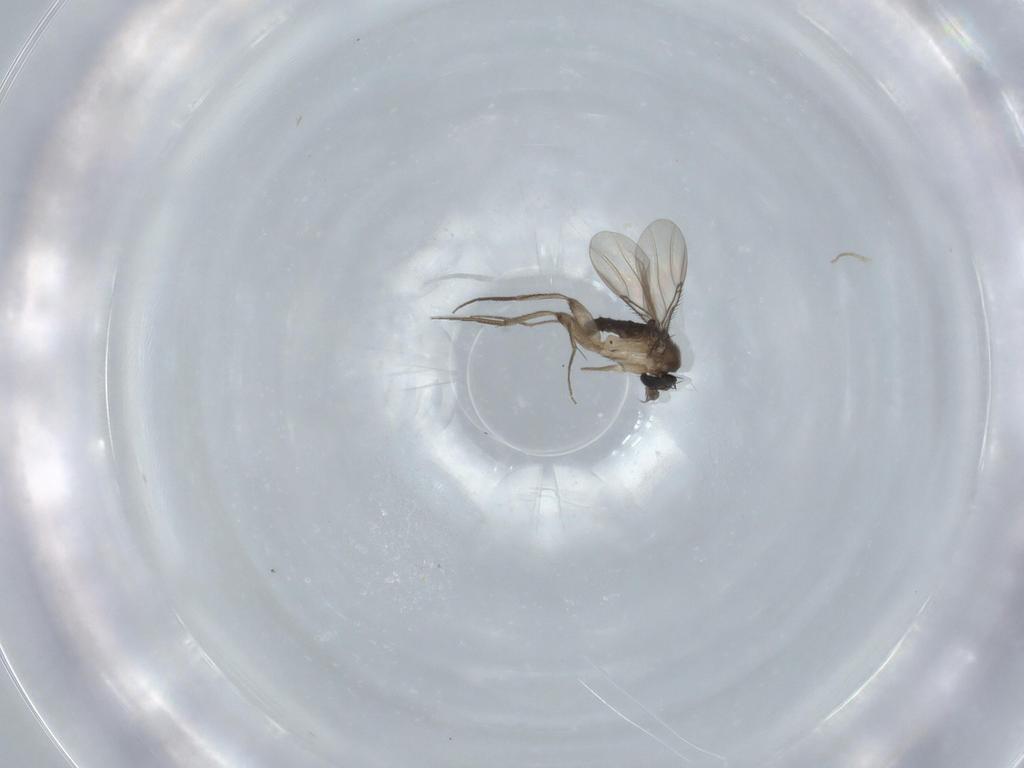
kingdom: Animalia
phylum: Arthropoda
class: Insecta
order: Diptera
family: Phoridae
